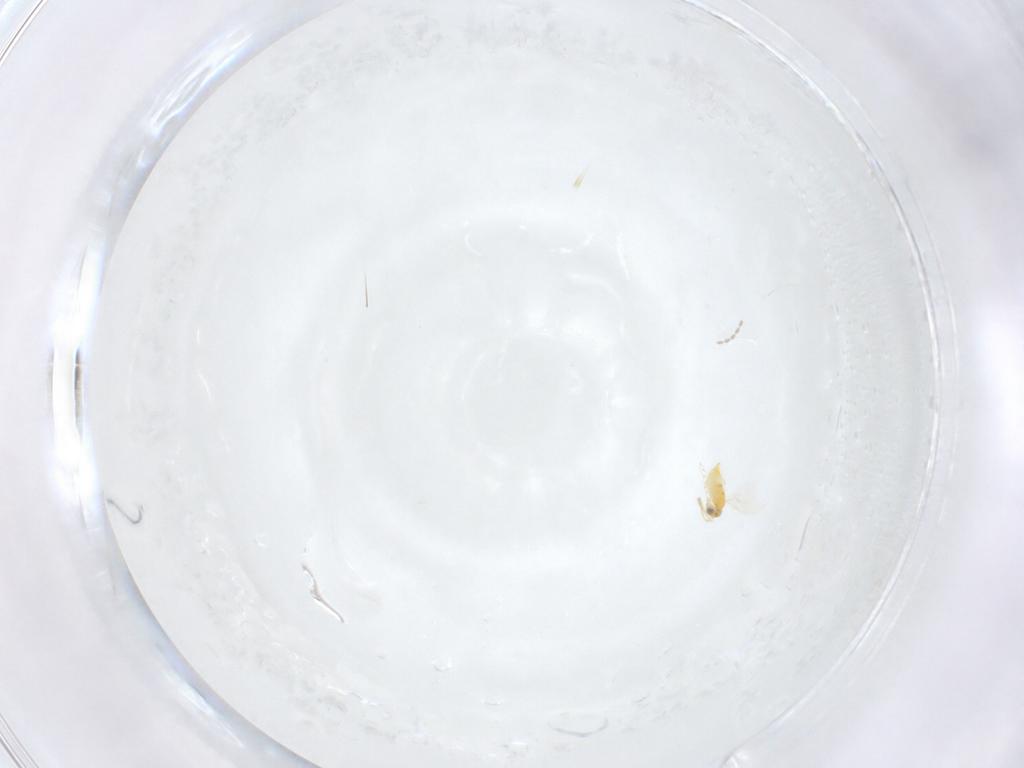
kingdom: Animalia
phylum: Arthropoda
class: Insecta
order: Hymenoptera
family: Aphelinidae
